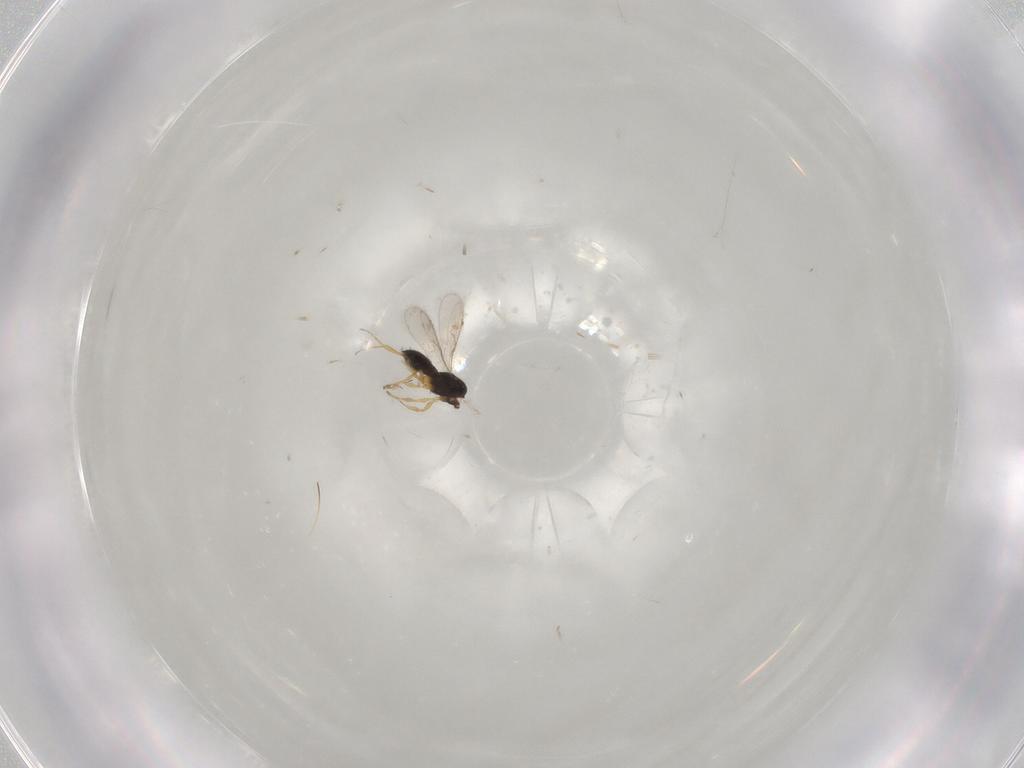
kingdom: Animalia
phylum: Arthropoda
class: Insecta
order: Hymenoptera
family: Scelionidae
